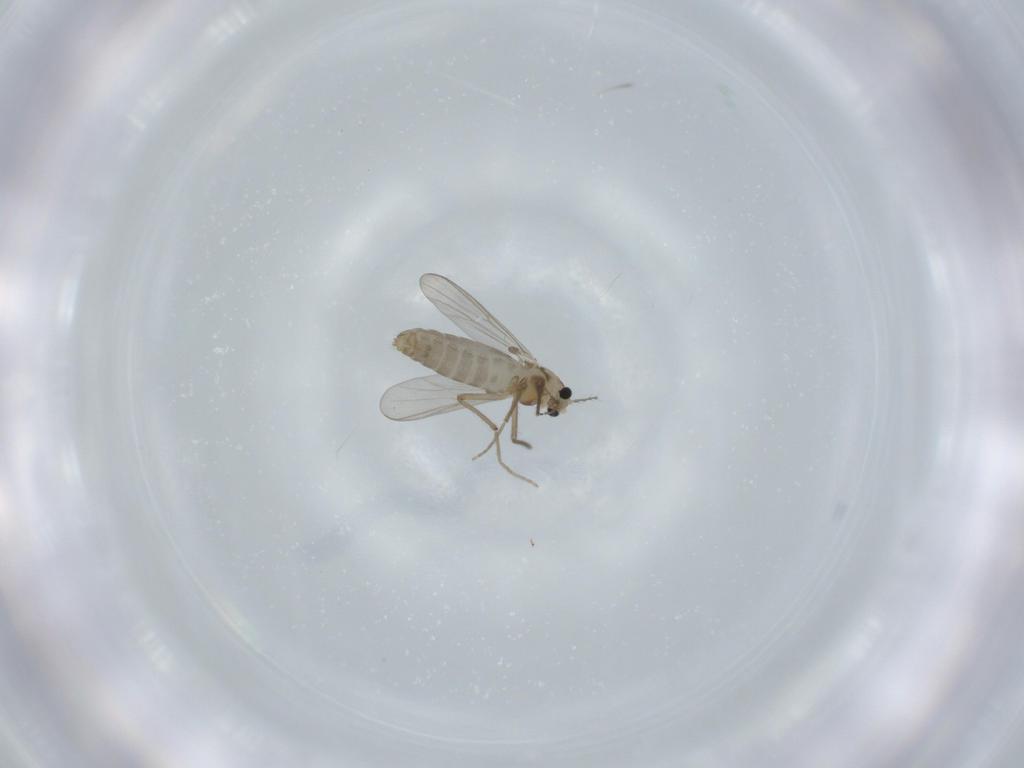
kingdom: Animalia
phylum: Arthropoda
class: Insecta
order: Diptera
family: Chironomidae
